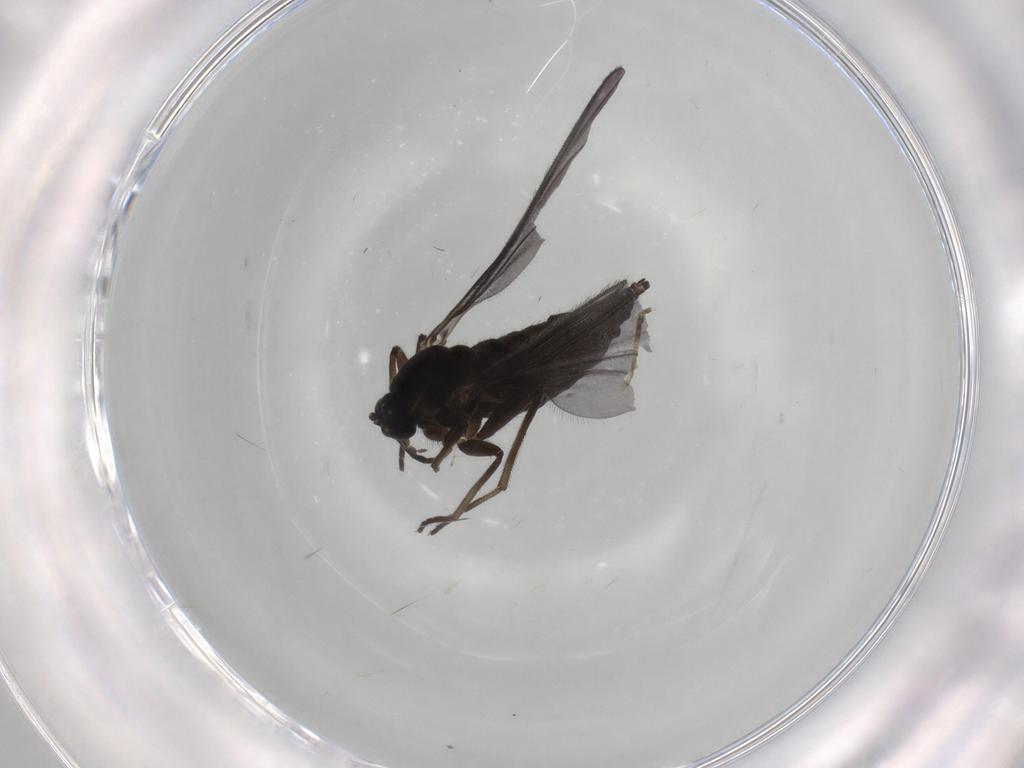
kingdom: Animalia
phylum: Arthropoda
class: Insecta
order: Diptera
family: Sciaridae
